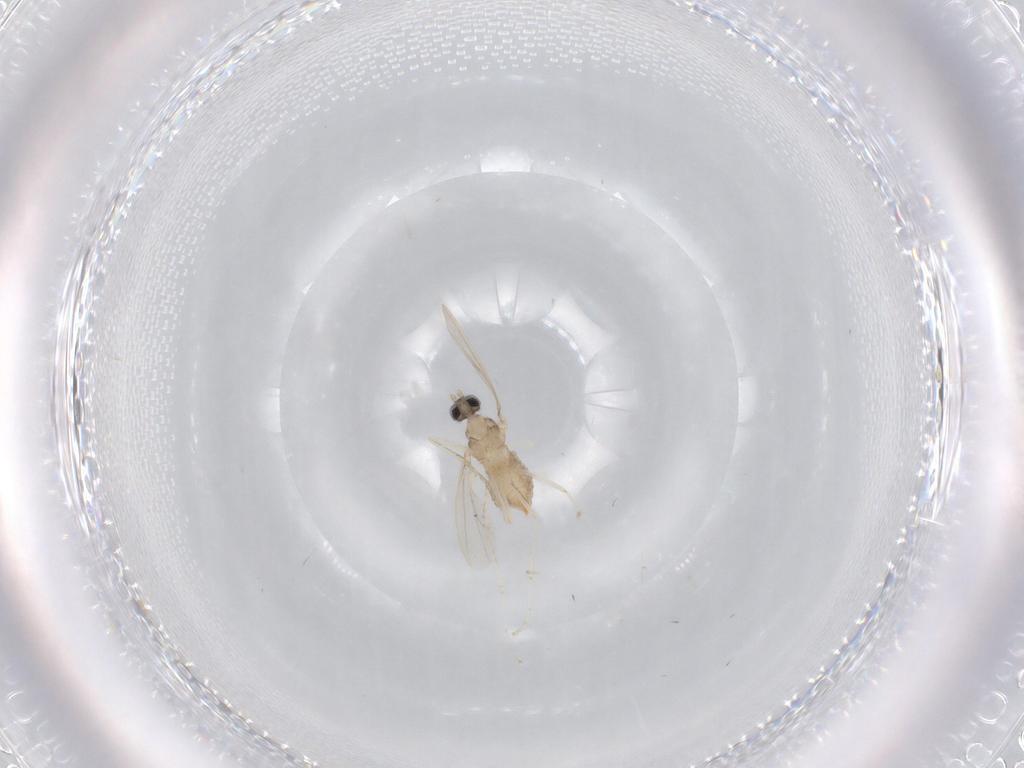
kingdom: Animalia
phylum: Arthropoda
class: Insecta
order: Diptera
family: Cecidomyiidae
